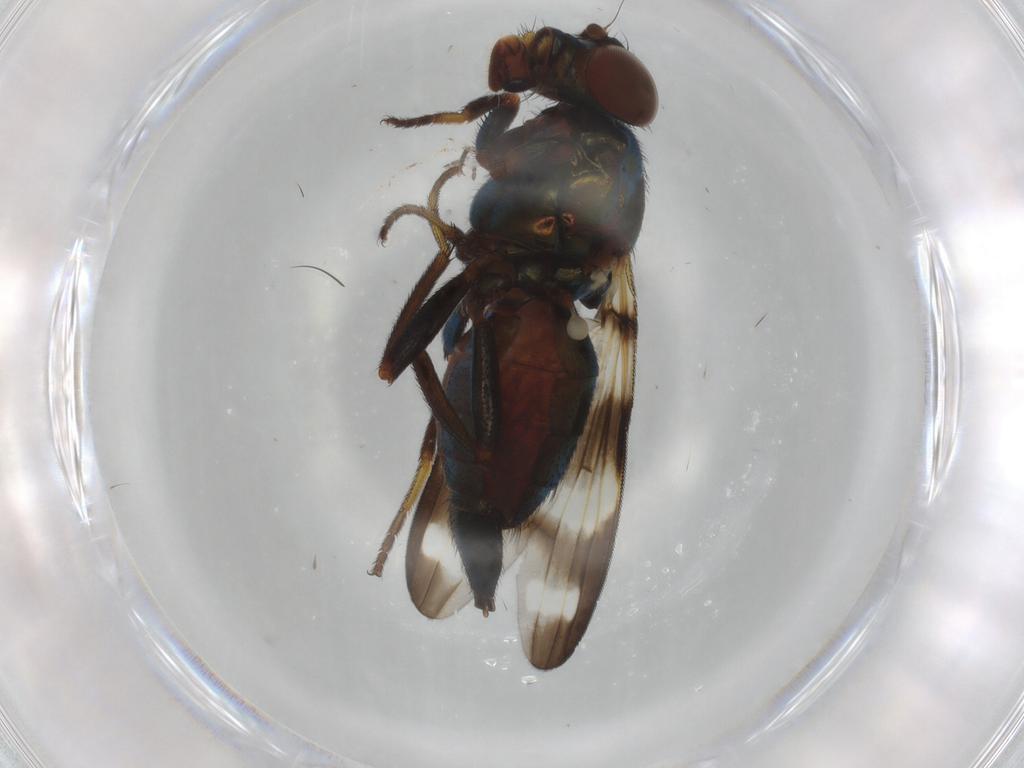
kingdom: Animalia
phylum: Arthropoda
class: Insecta
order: Diptera
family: Ulidiidae
